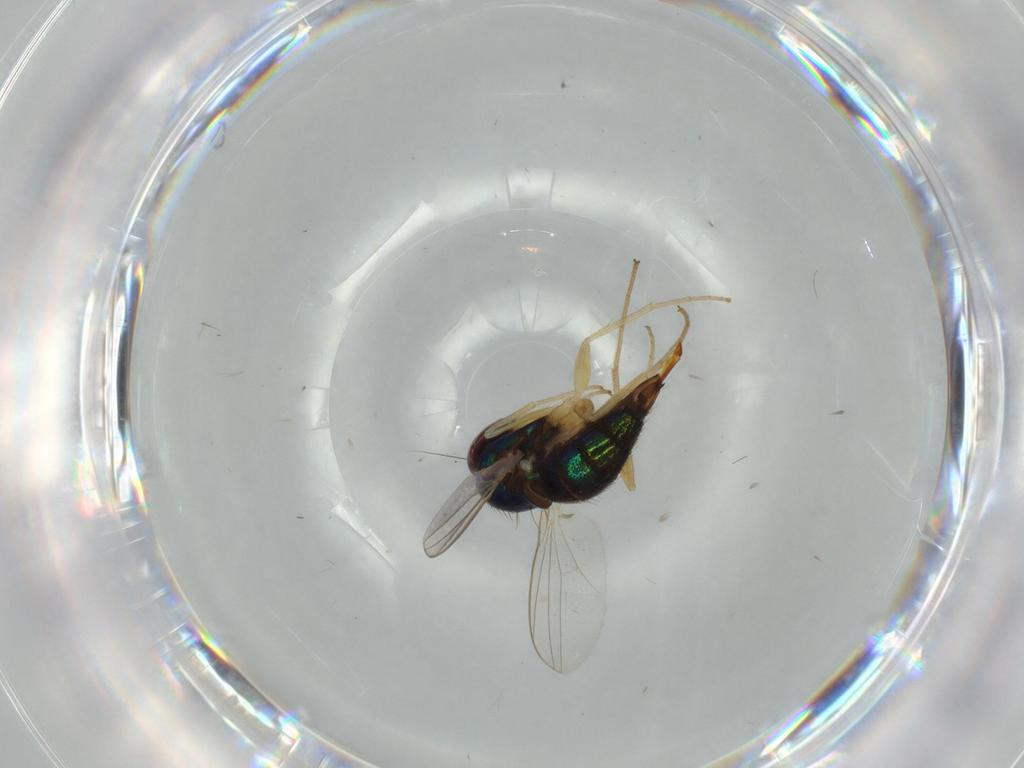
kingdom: Animalia
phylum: Arthropoda
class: Insecta
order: Diptera
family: Dolichopodidae
